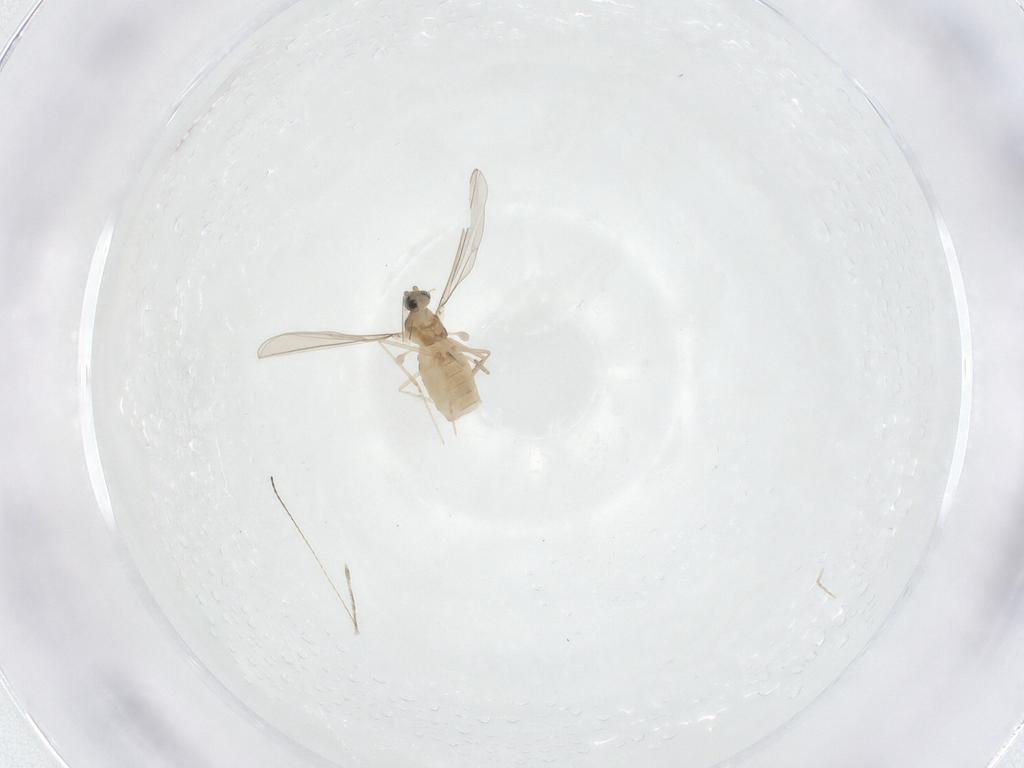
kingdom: Animalia
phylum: Arthropoda
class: Insecta
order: Diptera
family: Cecidomyiidae
